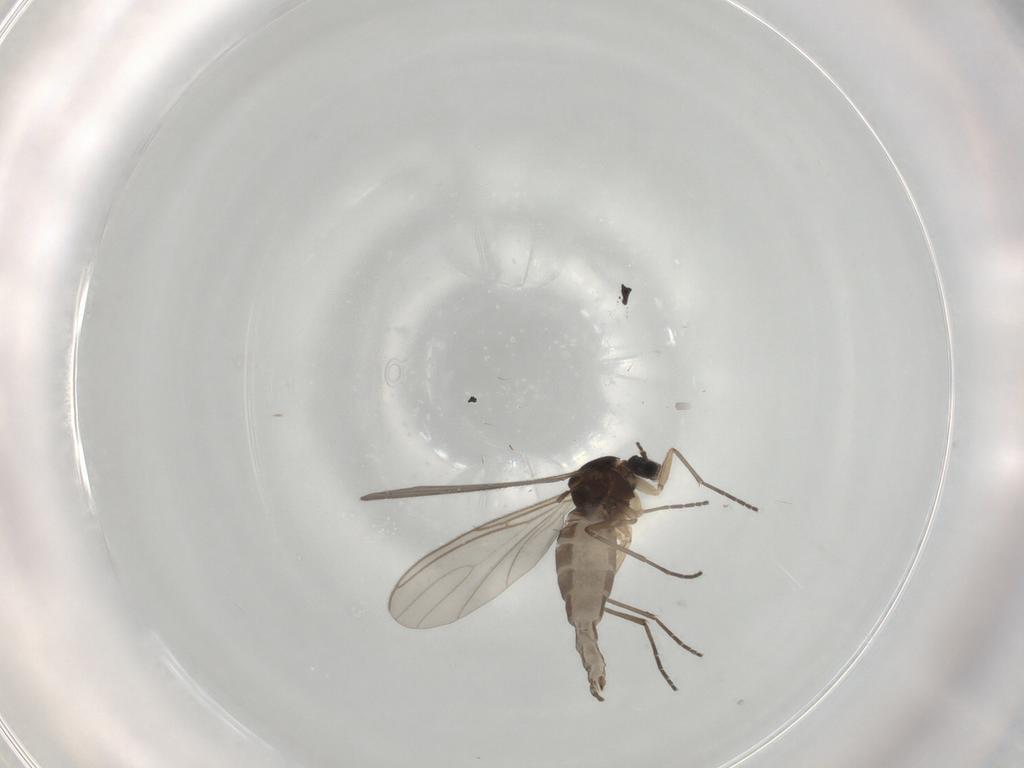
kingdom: Animalia
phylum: Arthropoda
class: Insecta
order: Diptera
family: Sciaridae
